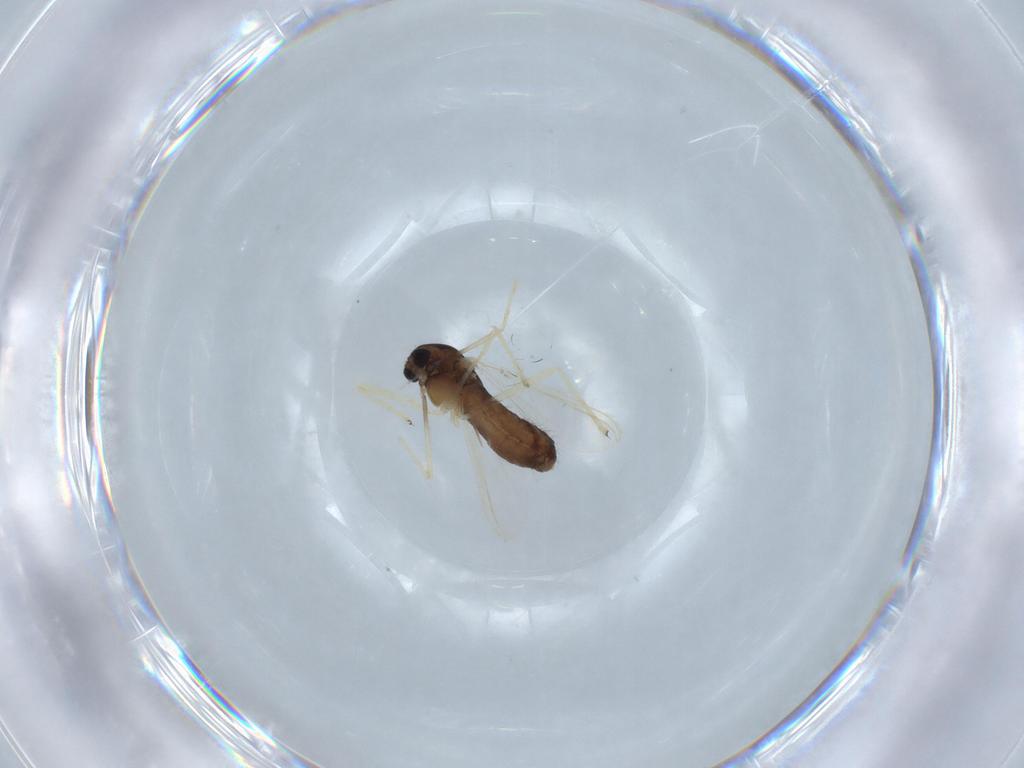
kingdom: Animalia
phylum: Arthropoda
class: Insecta
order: Diptera
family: Chironomidae
